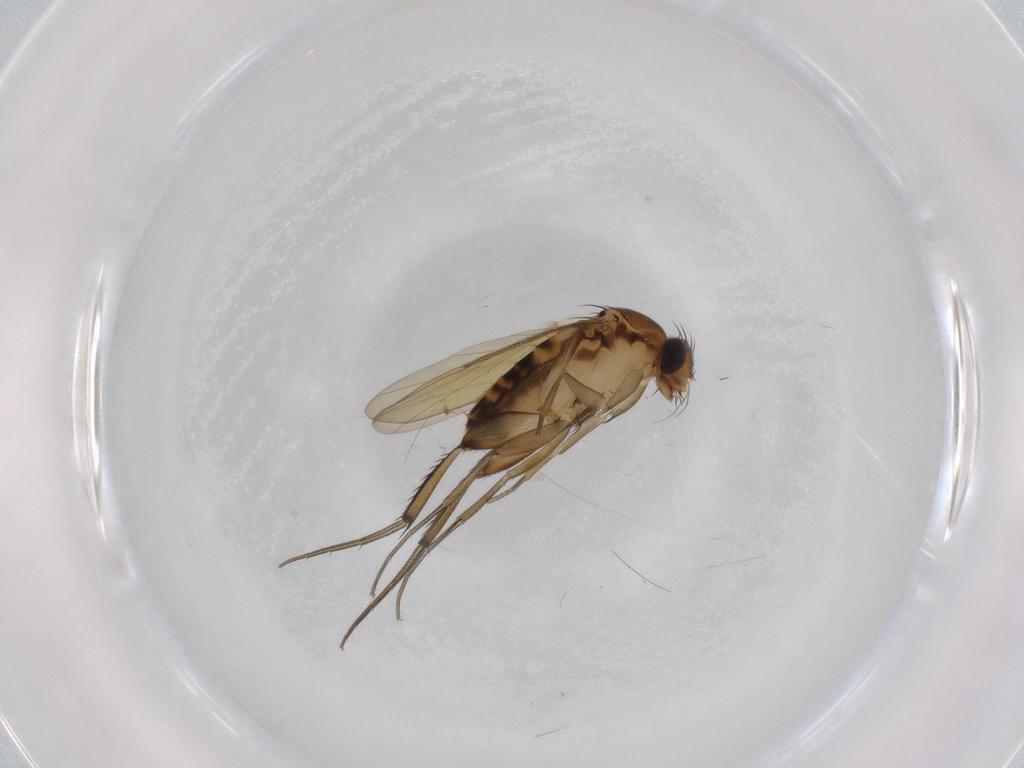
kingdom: Animalia
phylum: Arthropoda
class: Insecta
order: Diptera
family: Phoridae
